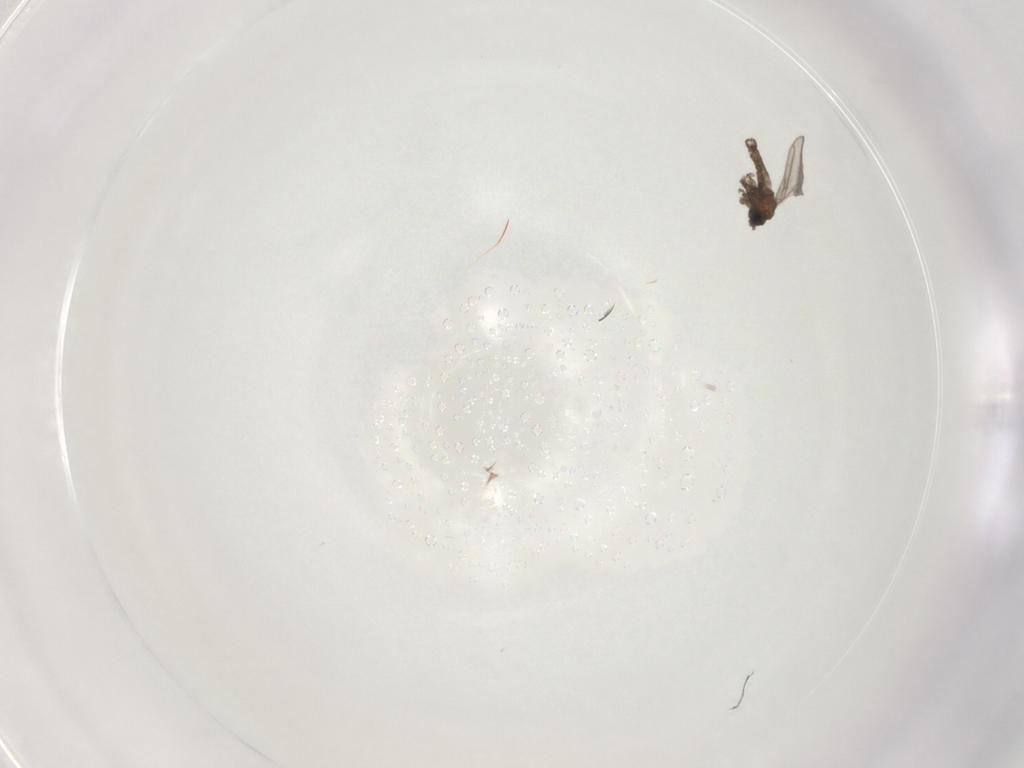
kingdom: Animalia
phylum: Arthropoda
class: Insecta
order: Diptera
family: Sciaridae
